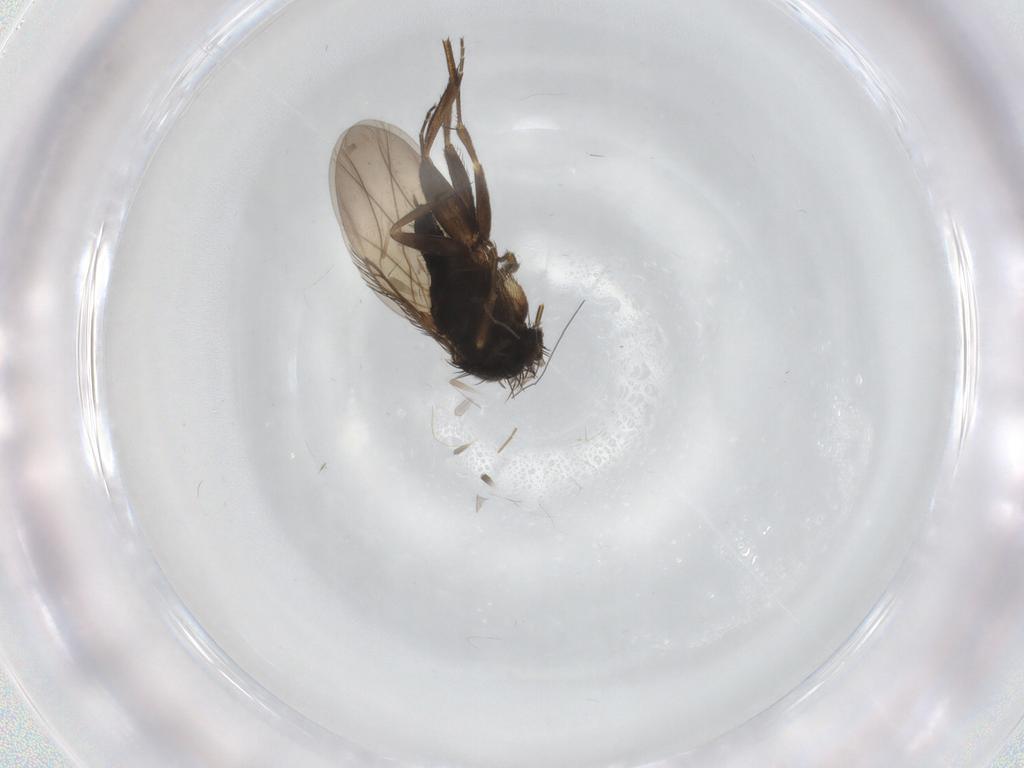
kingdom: Animalia
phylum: Arthropoda
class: Insecta
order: Diptera
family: Phoridae
